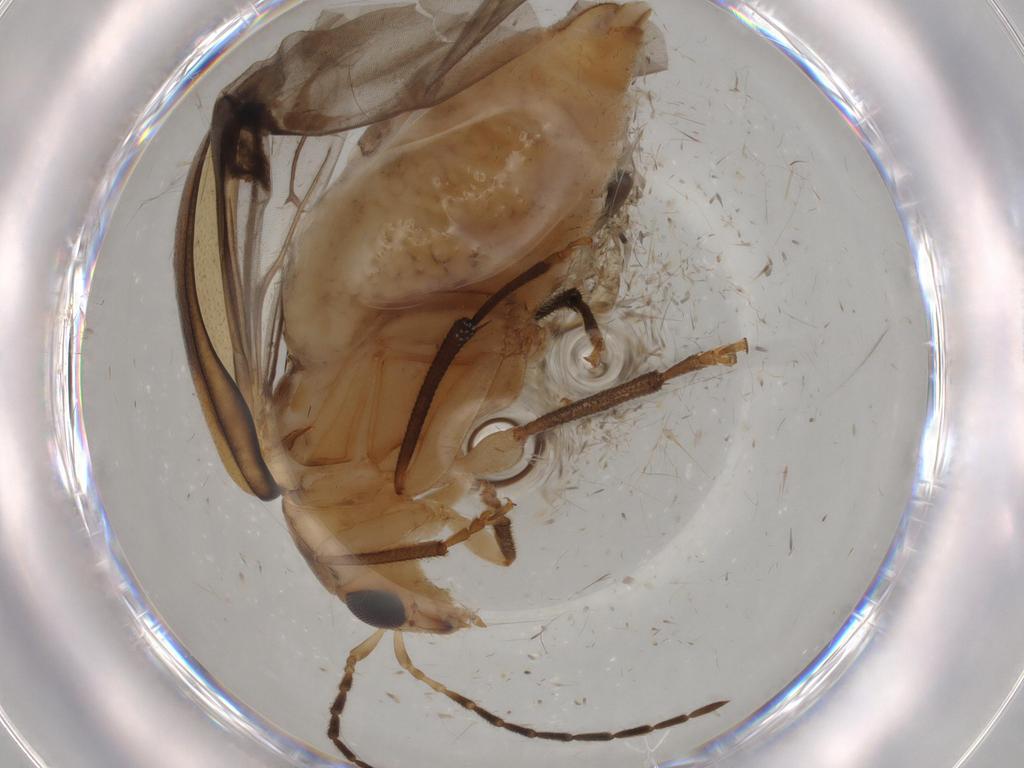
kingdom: Animalia
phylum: Arthropoda
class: Insecta
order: Coleoptera
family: Chrysomelidae
